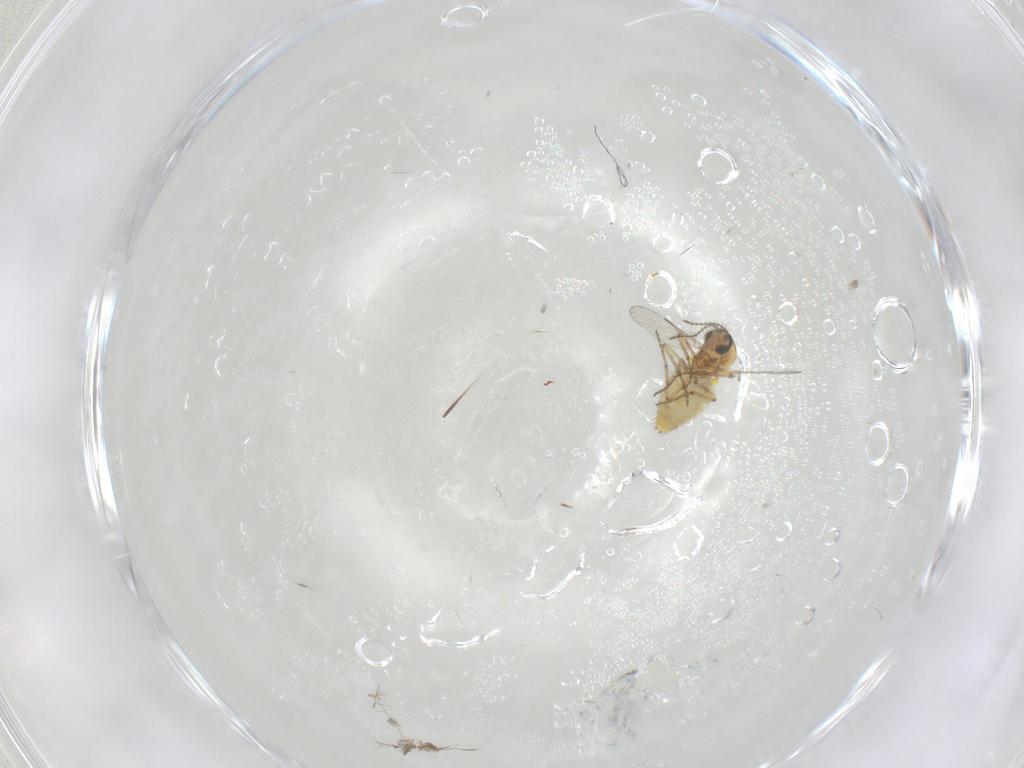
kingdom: Animalia
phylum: Arthropoda
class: Insecta
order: Diptera
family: Ceratopogonidae
